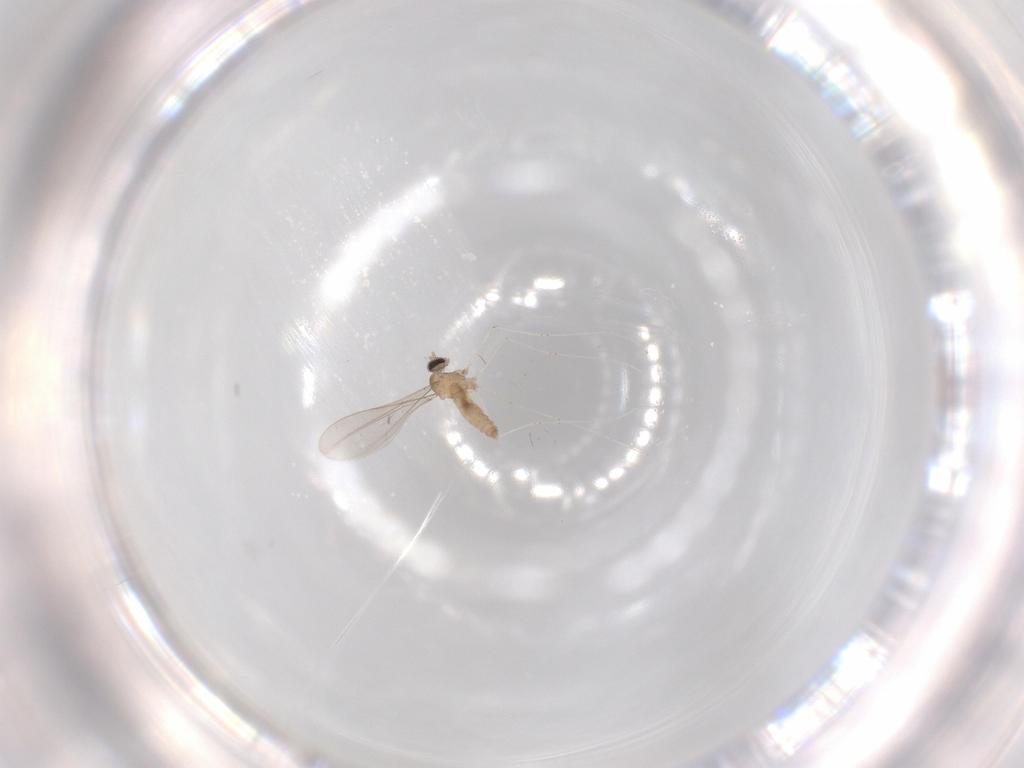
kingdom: Animalia
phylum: Arthropoda
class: Insecta
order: Diptera
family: Cecidomyiidae
